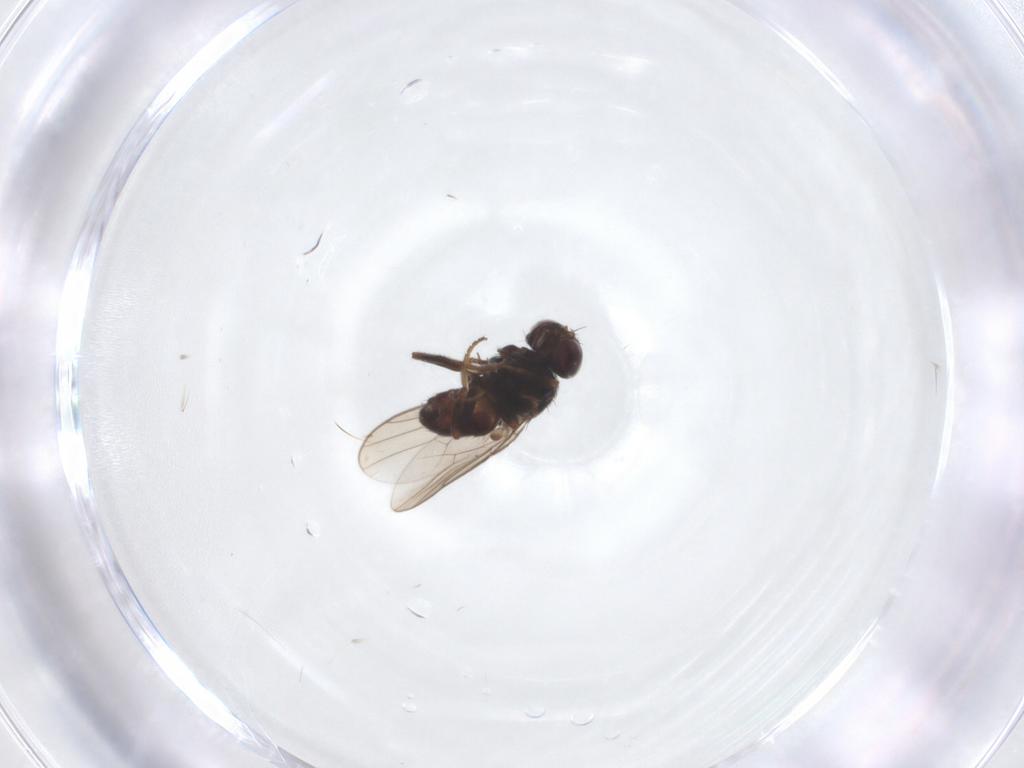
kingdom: Animalia
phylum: Arthropoda
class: Insecta
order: Diptera
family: Chloropidae
